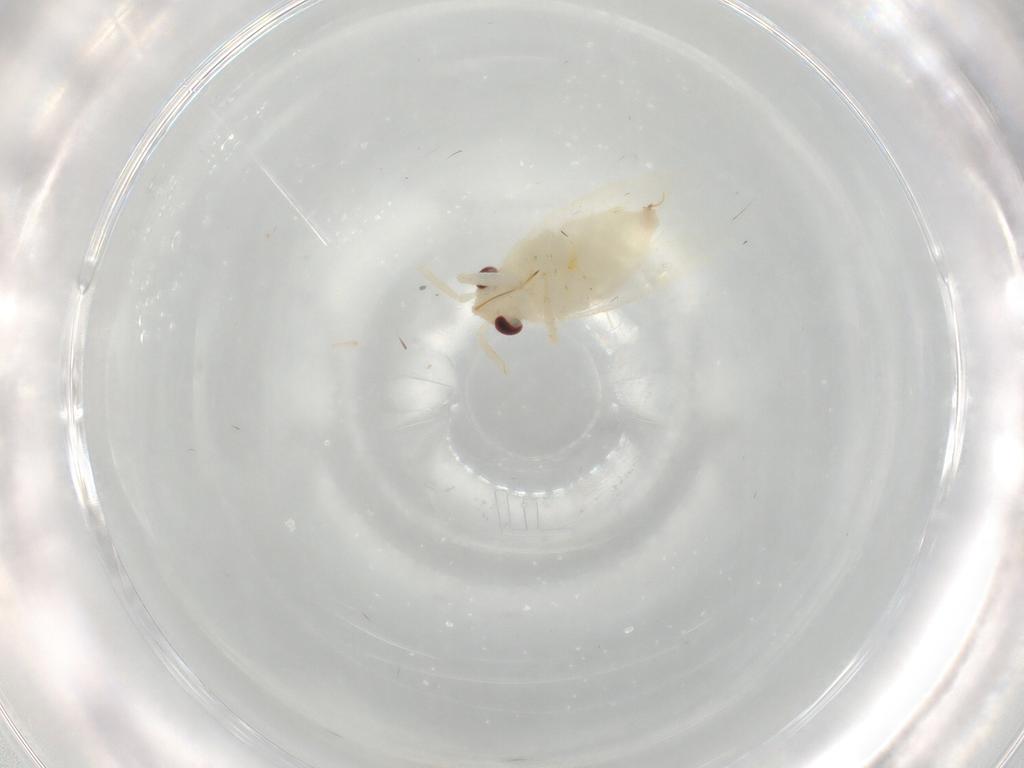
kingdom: Animalia
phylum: Arthropoda
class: Insecta
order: Hemiptera
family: Miridae
